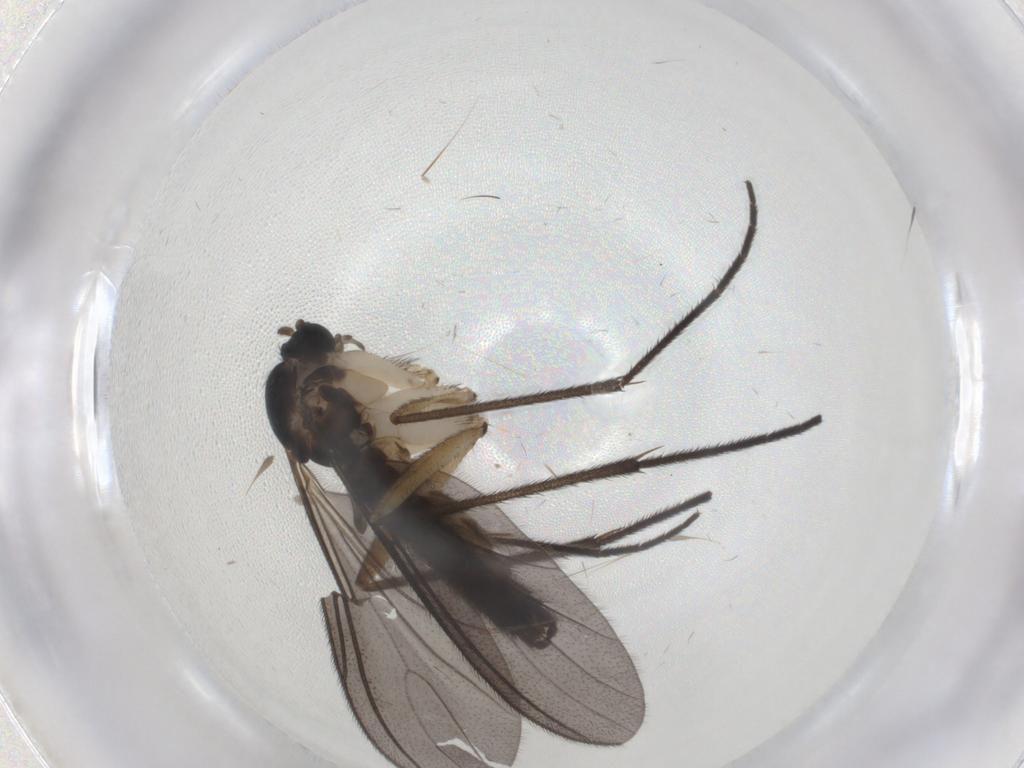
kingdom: Animalia
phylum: Arthropoda
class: Insecta
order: Diptera
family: Sciaridae
